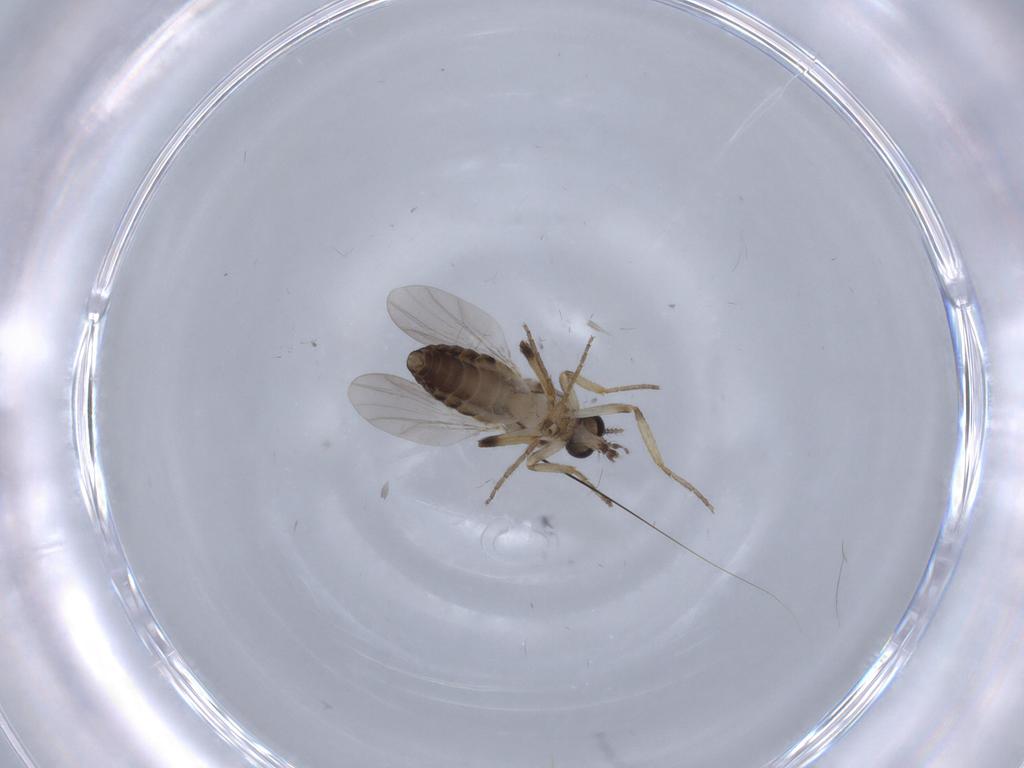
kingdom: Animalia
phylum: Arthropoda
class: Insecta
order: Diptera
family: Ceratopogonidae
